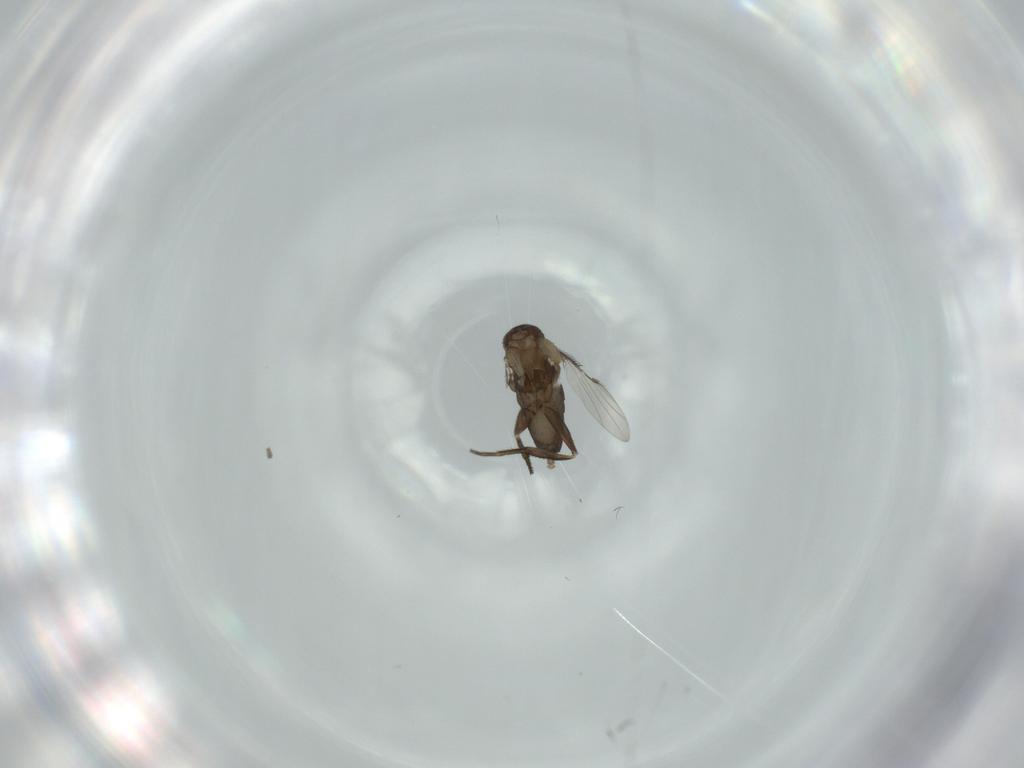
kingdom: Animalia
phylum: Arthropoda
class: Insecta
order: Diptera
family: Phoridae
